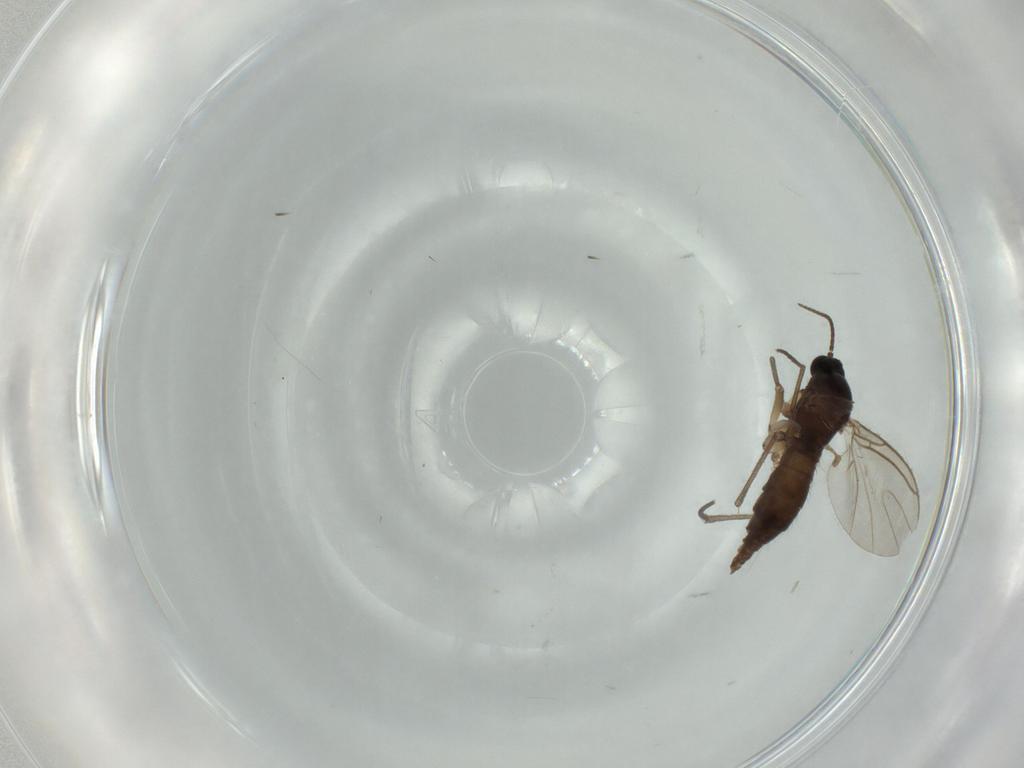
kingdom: Animalia
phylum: Arthropoda
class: Insecta
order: Diptera
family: Sciaridae
